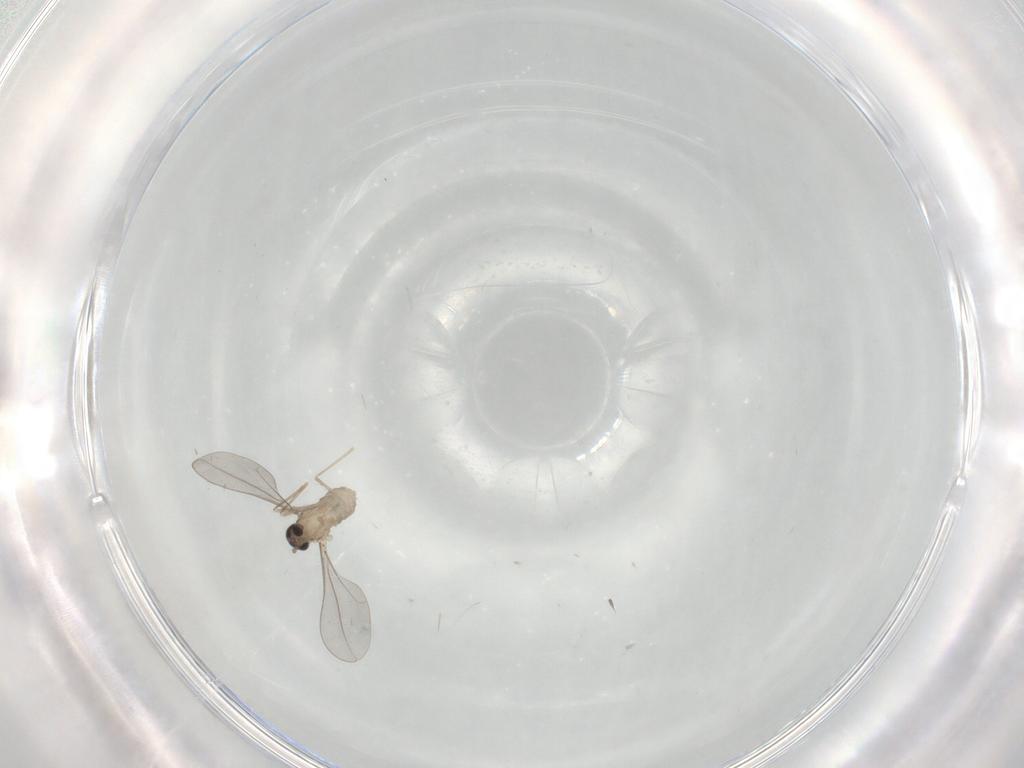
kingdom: Animalia
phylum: Arthropoda
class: Insecta
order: Diptera
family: Cecidomyiidae
